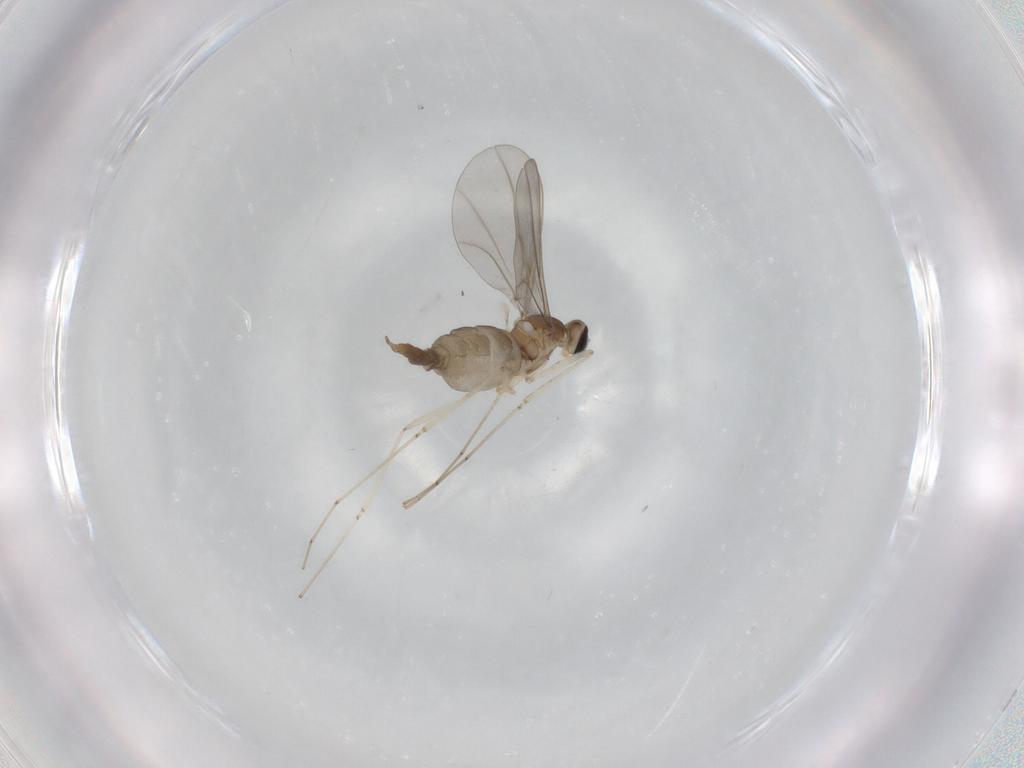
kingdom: Animalia
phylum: Arthropoda
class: Insecta
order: Diptera
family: Cecidomyiidae
